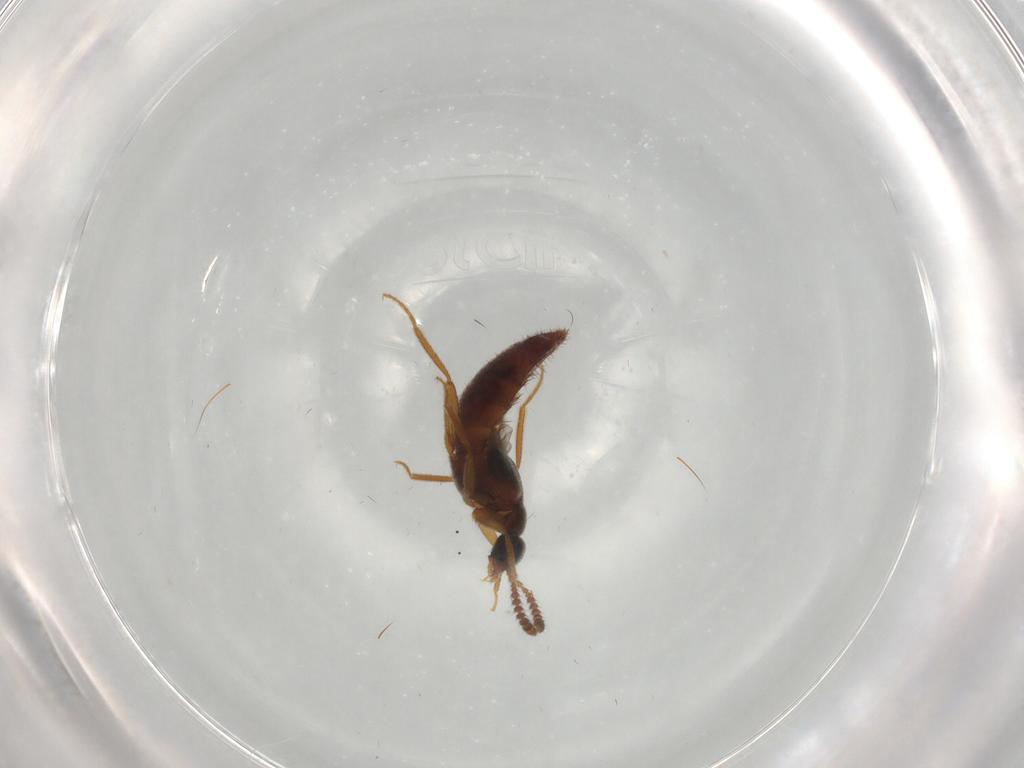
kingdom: Animalia
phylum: Arthropoda
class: Insecta
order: Coleoptera
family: Staphylinidae
